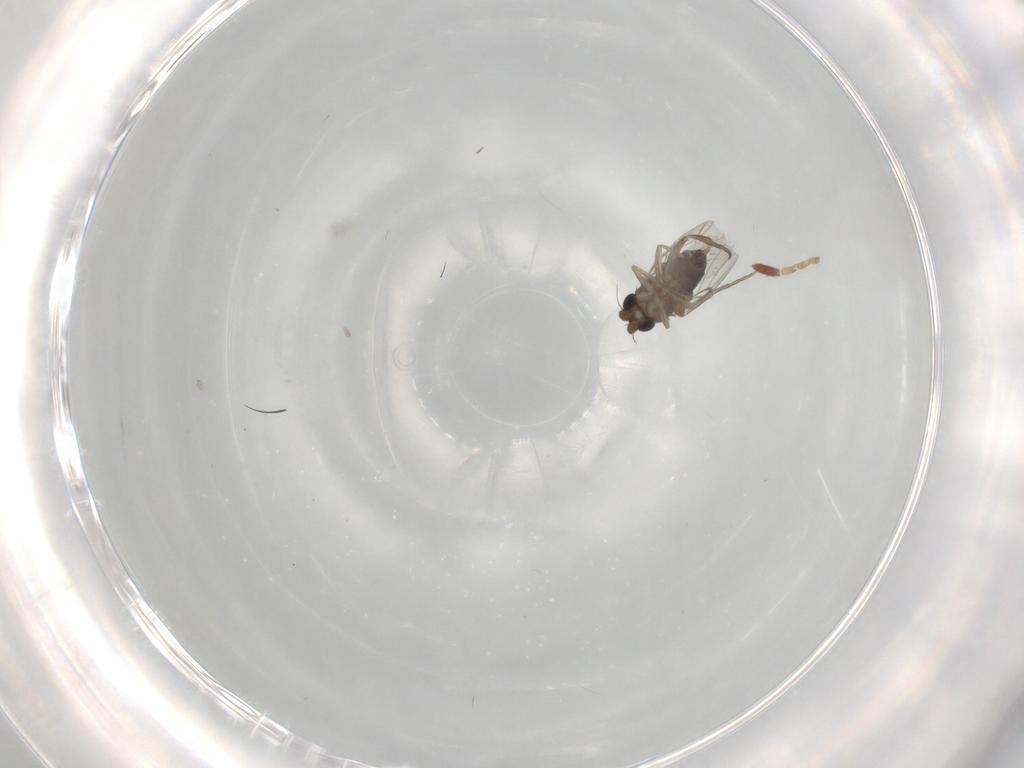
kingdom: Animalia
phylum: Arthropoda
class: Insecta
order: Diptera
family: Phoridae
